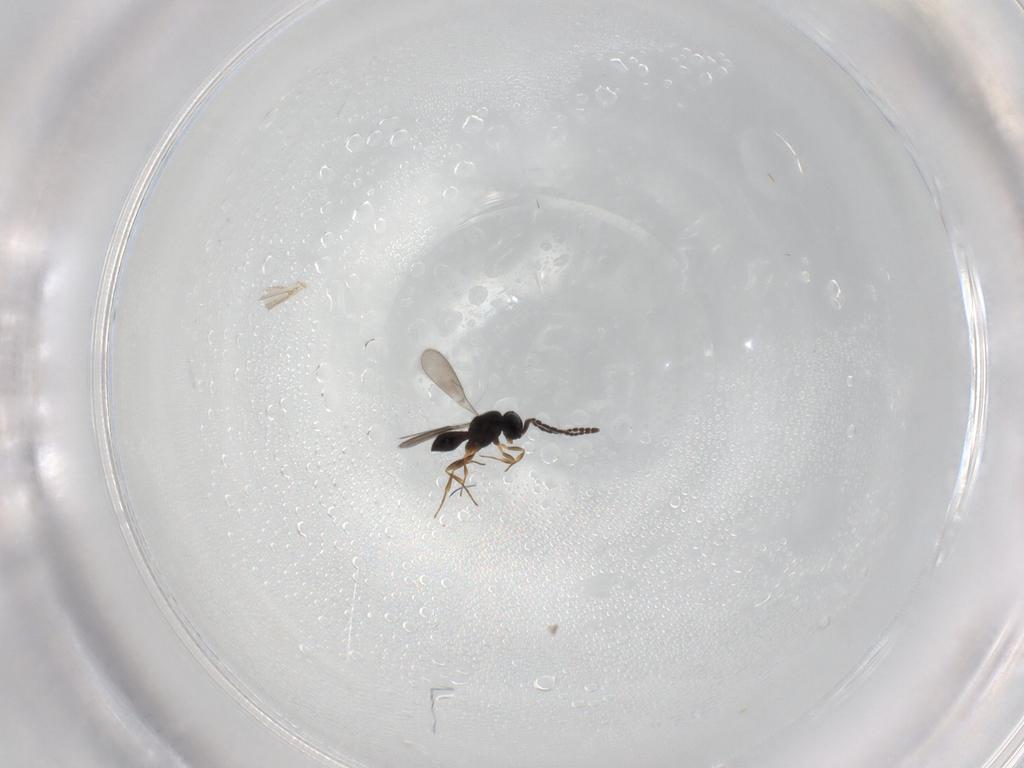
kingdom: Animalia
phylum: Arthropoda
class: Insecta
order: Hymenoptera
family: Scelionidae
